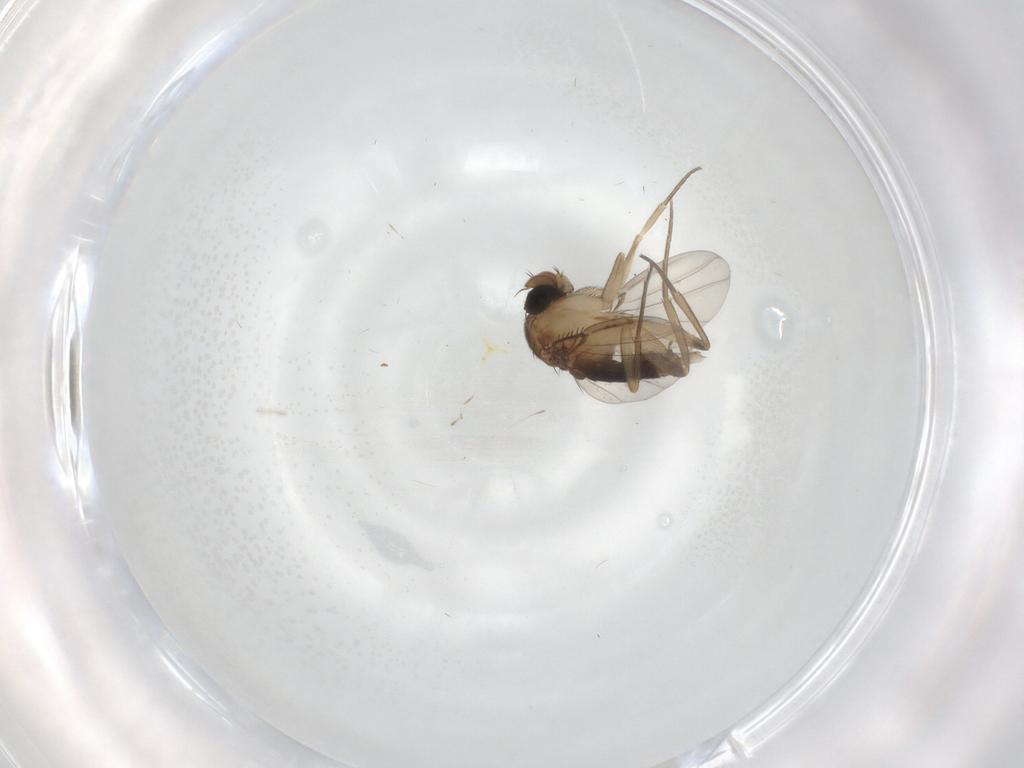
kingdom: Animalia
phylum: Arthropoda
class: Insecta
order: Diptera
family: Phoridae
